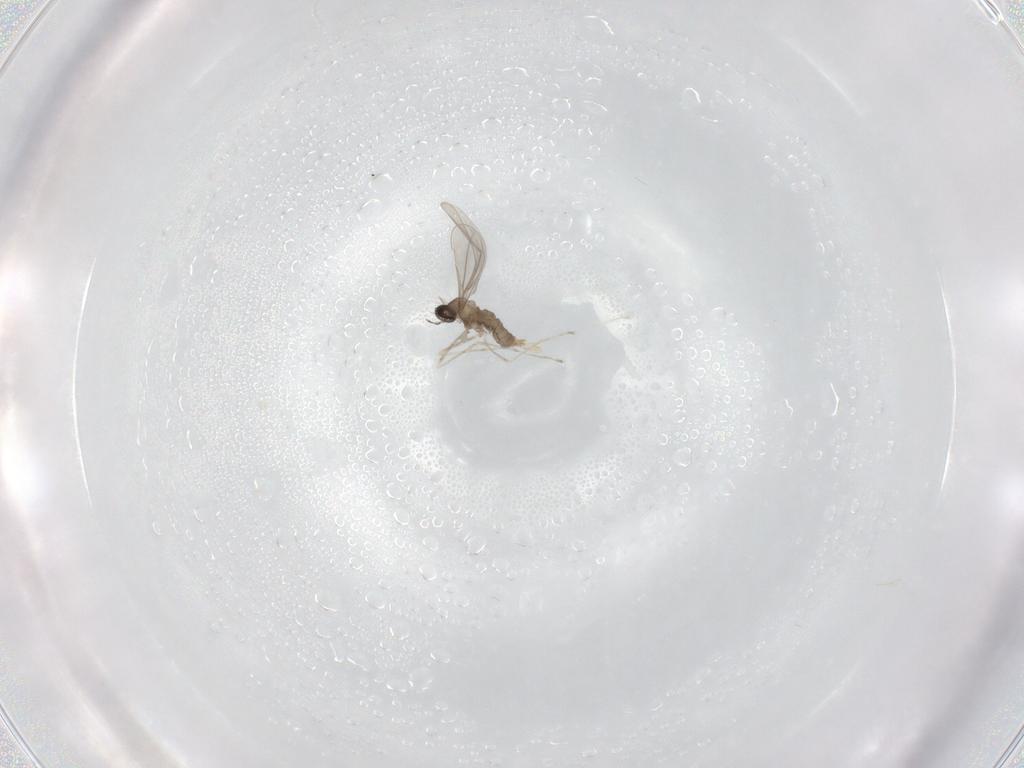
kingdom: Animalia
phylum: Arthropoda
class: Insecta
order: Diptera
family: Cecidomyiidae
